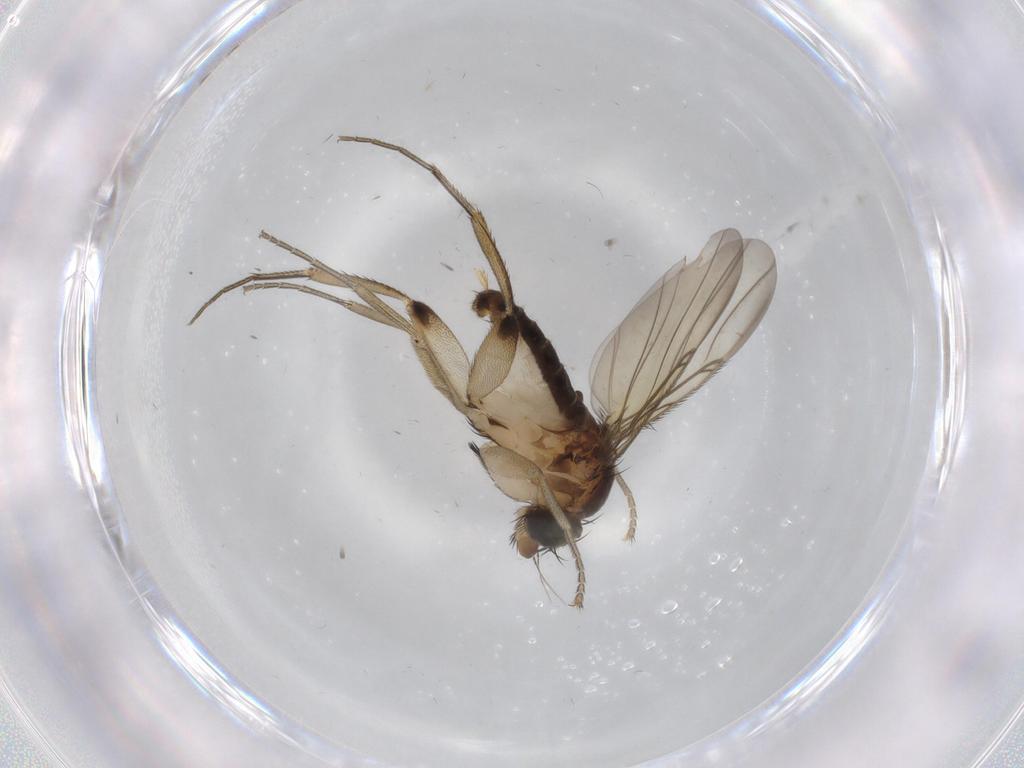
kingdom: Animalia
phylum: Arthropoda
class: Insecta
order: Diptera
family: Phoridae
